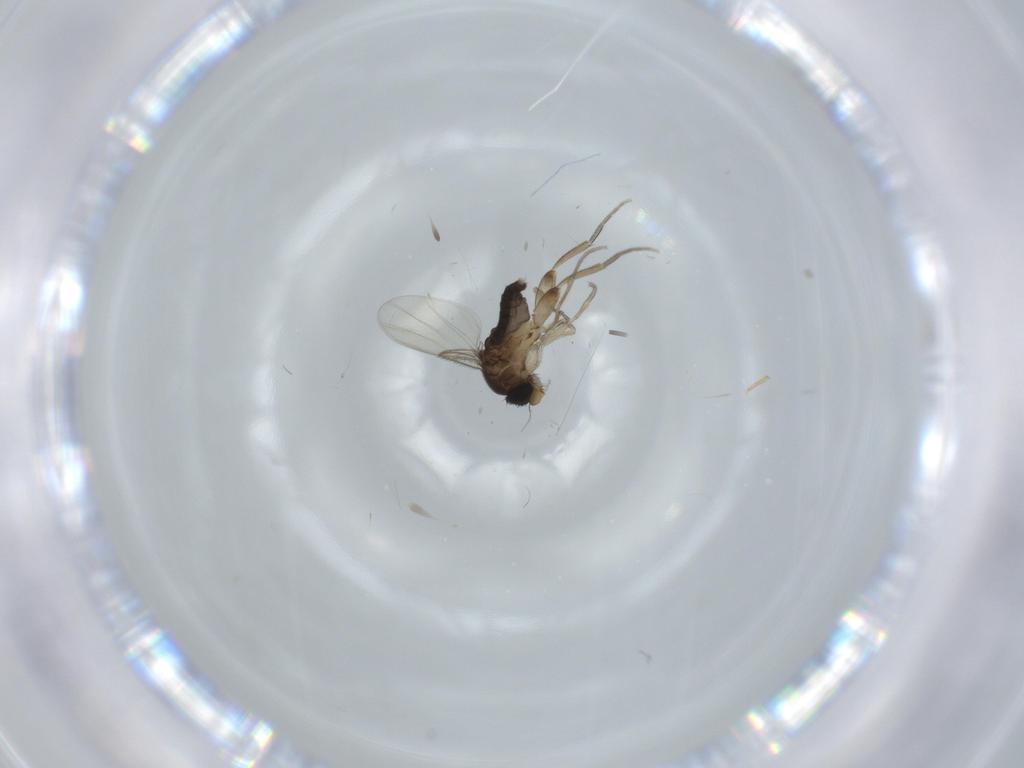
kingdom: Animalia
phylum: Arthropoda
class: Insecta
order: Diptera
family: Phoridae
